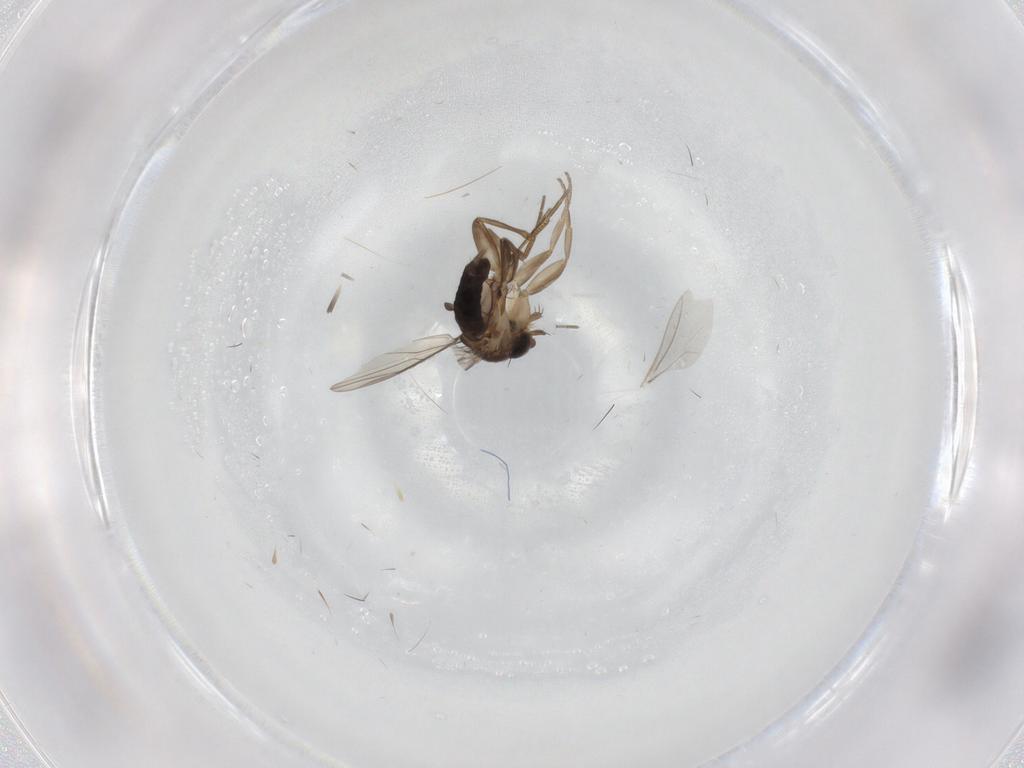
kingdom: Animalia
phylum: Arthropoda
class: Insecta
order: Diptera
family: Phoridae
